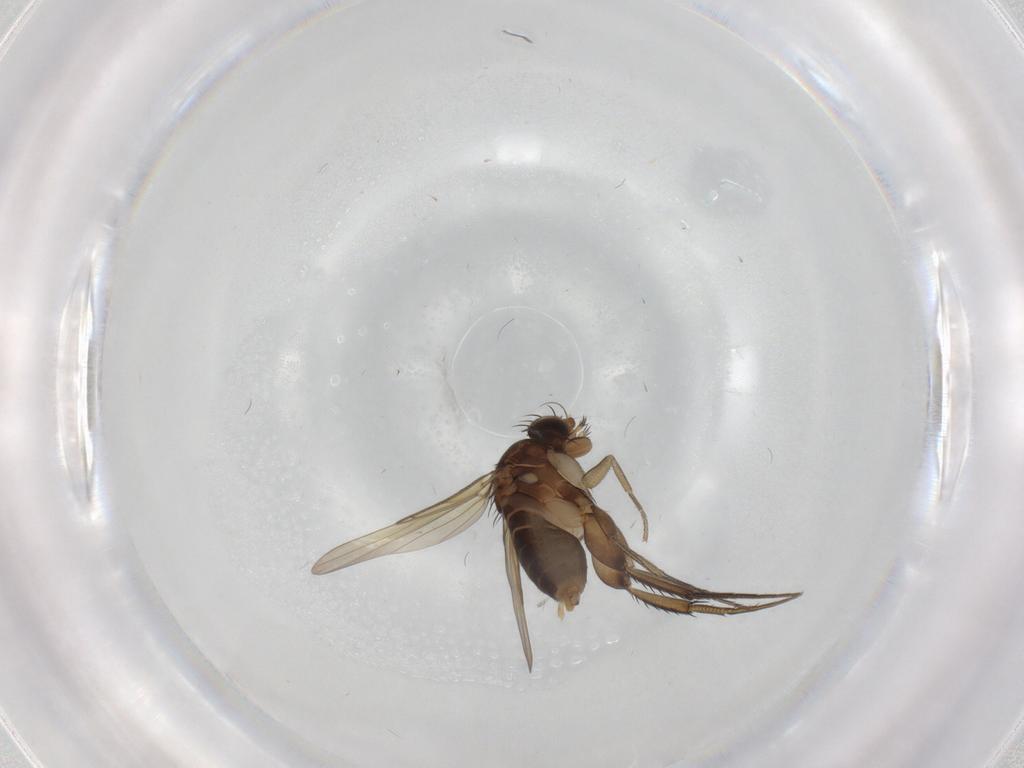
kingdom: Animalia
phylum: Arthropoda
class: Insecta
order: Diptera
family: Phoridae
